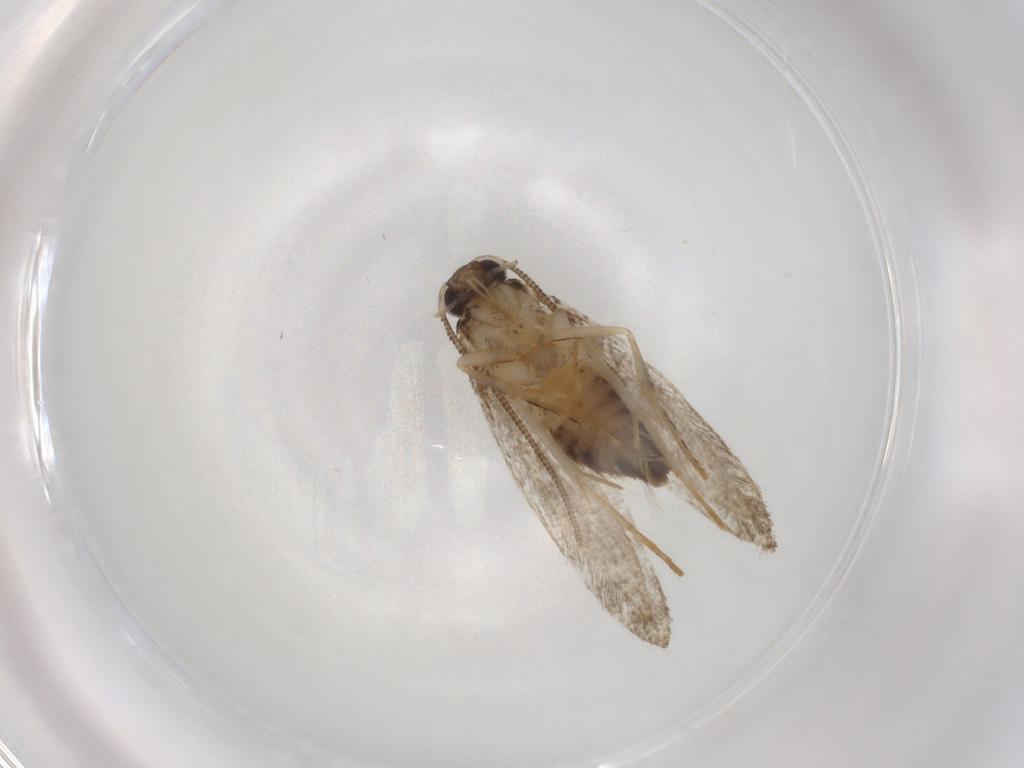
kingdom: Animalia
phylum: Arthropoda
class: Insecta
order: Lepidoptera
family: Tineidae
